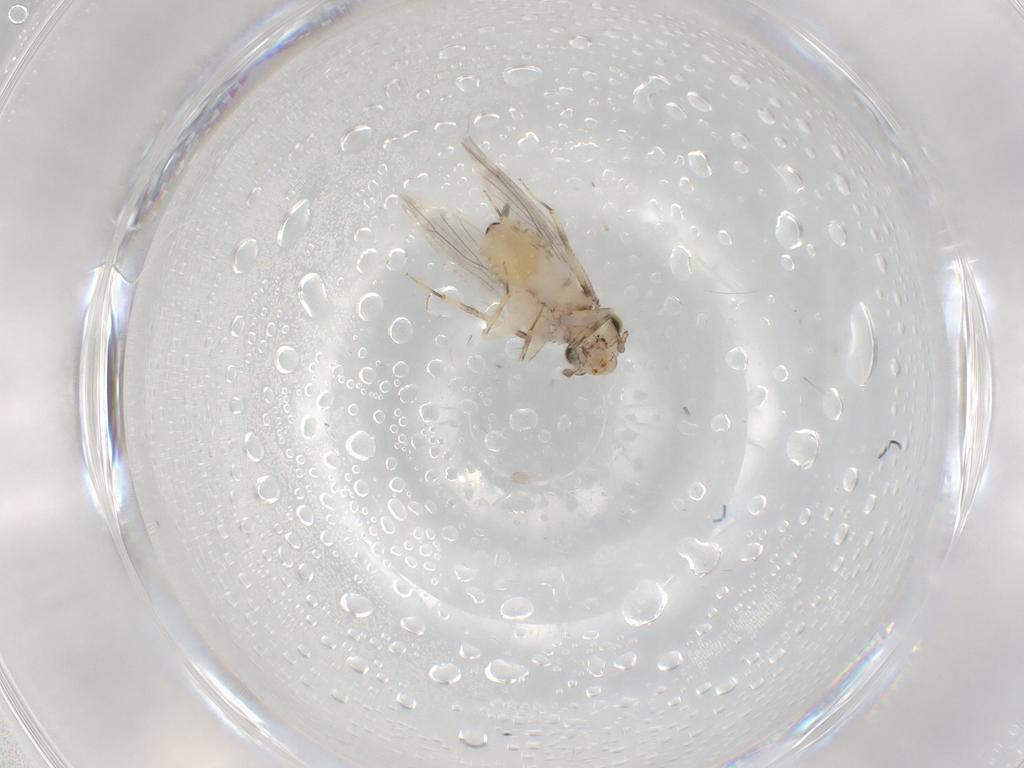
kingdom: Animalia
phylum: Arthropoda
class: Insecta
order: Psocodea
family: Lepidopsocidae
